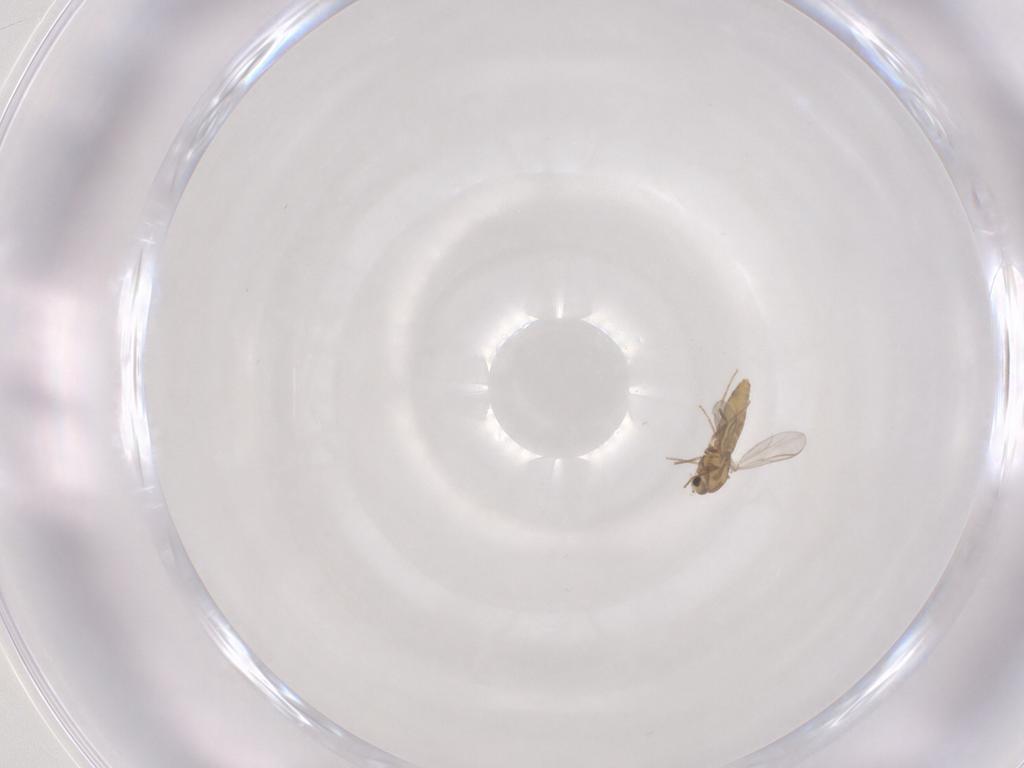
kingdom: Animalia
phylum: Arthropoda
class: Insecta
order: Diptera
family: Chironomidae
